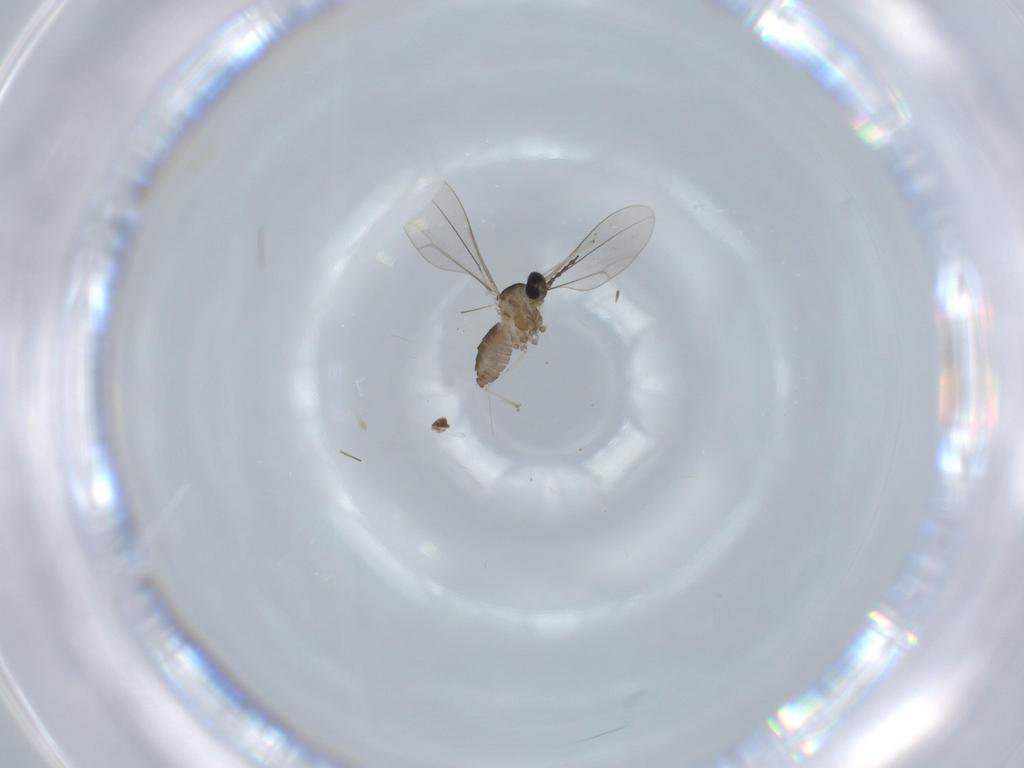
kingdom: Animalia
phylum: Arthropoda
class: Insecta
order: Diptera
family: Cecidomyiidae
